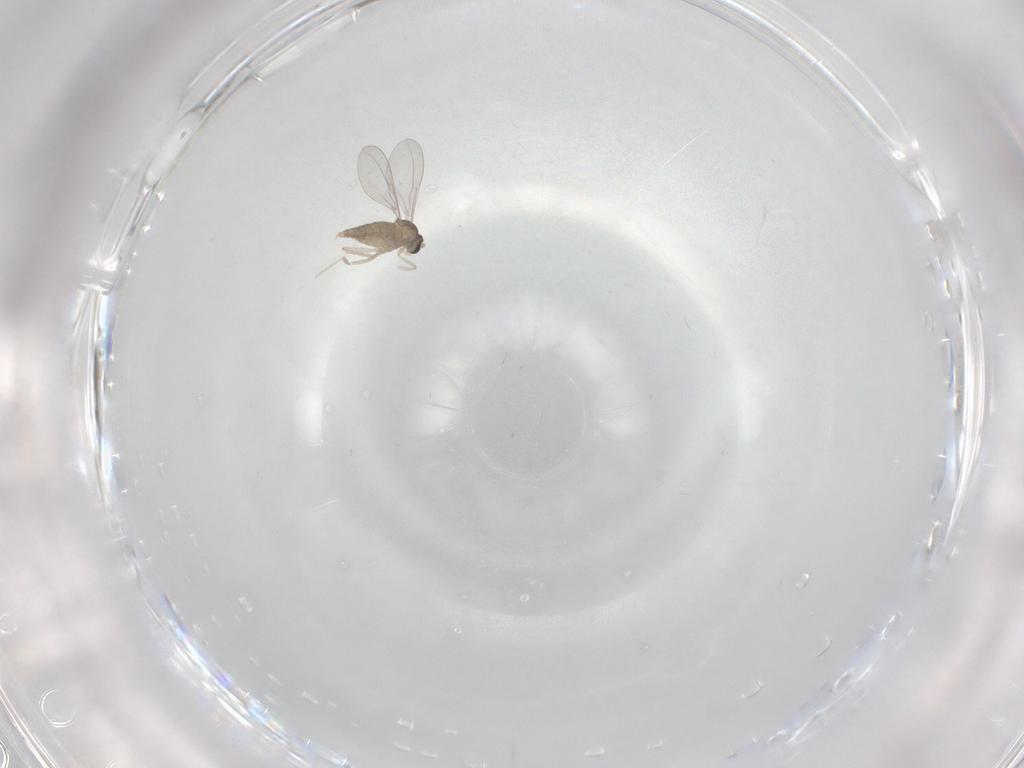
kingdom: Animalia
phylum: Arthropoda
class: Insecta
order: Diptera
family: Cecidomyiidae
